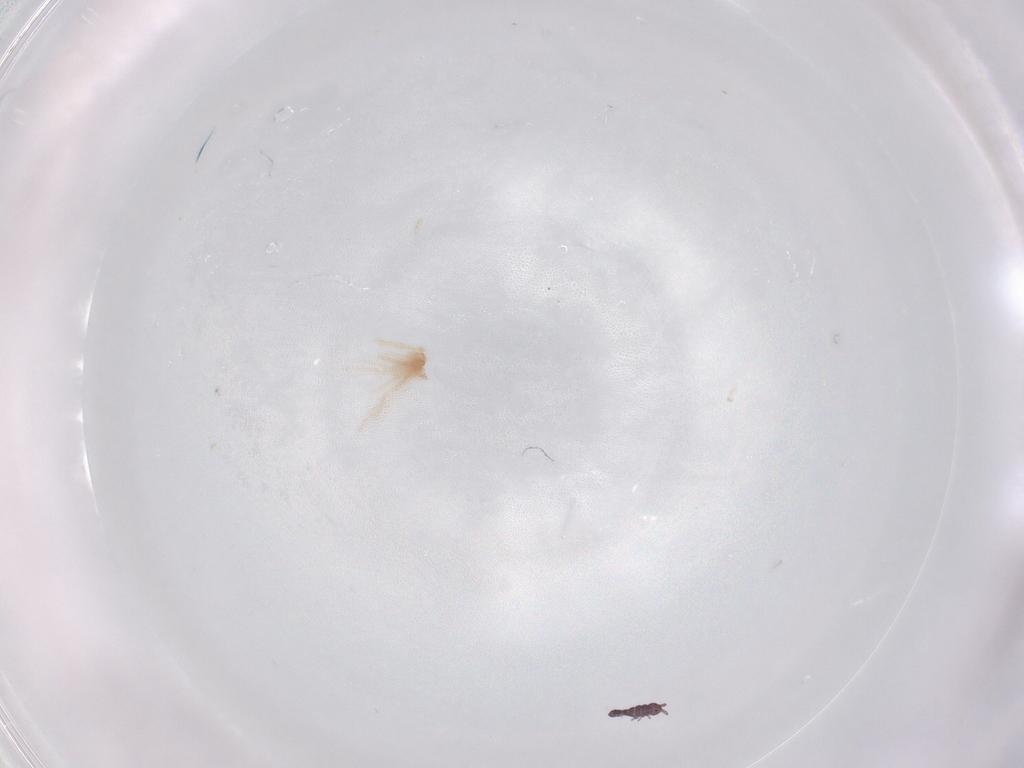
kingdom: Animalia
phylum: Arthropoda
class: Collembola
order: Poduromorpha
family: Hypogastruridae
